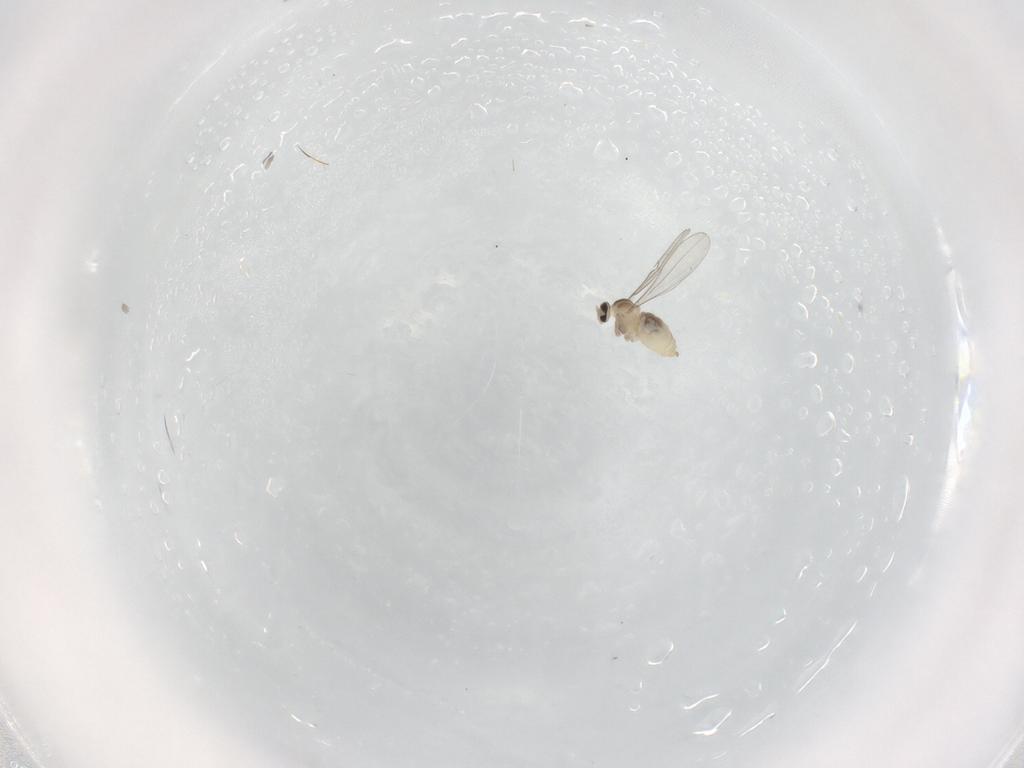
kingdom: Animalia
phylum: Arthropoda
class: Insecta
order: Diptera
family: Cecidomyiidae
